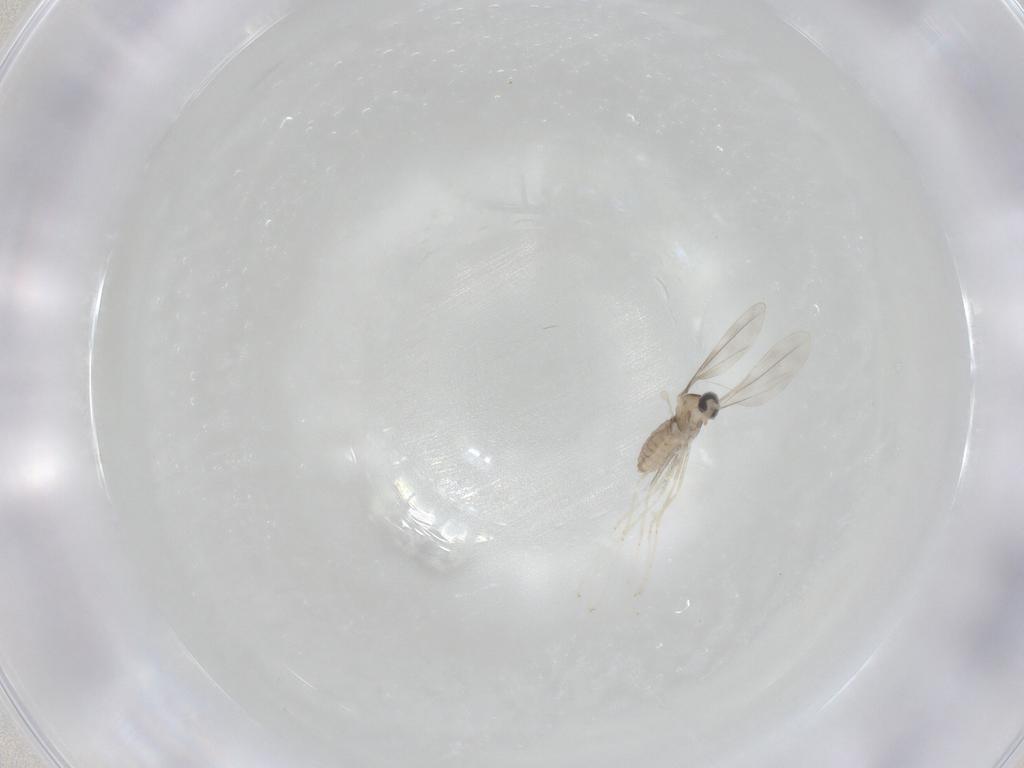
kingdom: Animalia
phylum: Arthropoda
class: Insecta
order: Diptera
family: Cecidomyiidae
